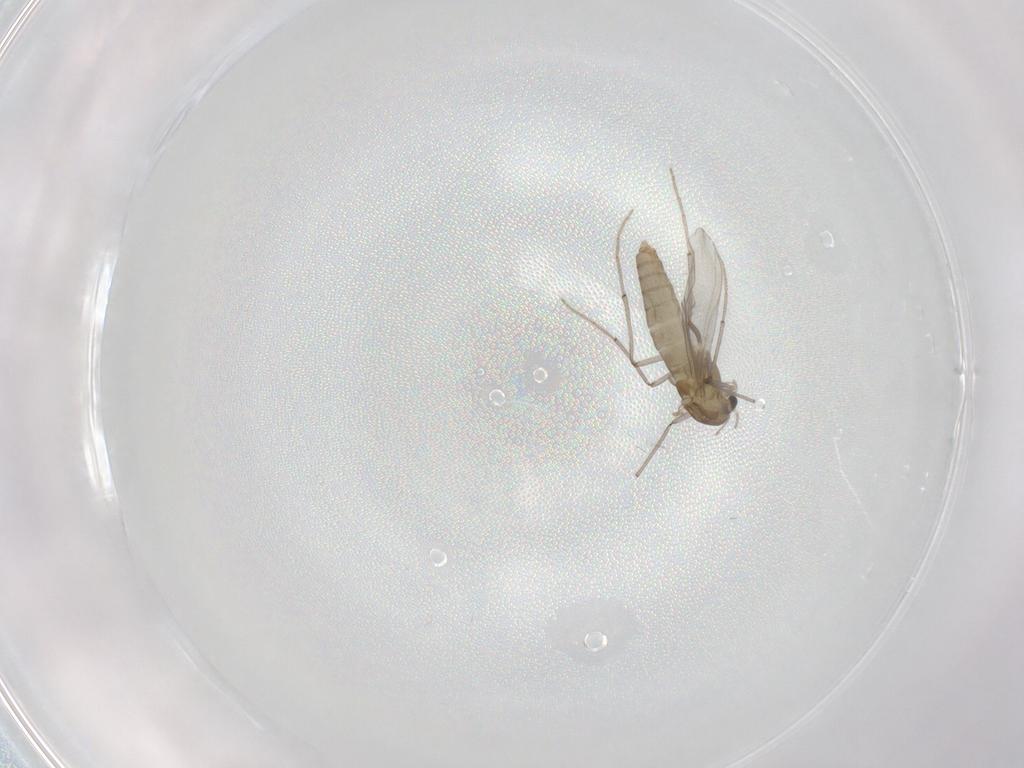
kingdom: Animalia
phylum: Arthropoda
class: Insecta
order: Diptera
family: Chironomidae
